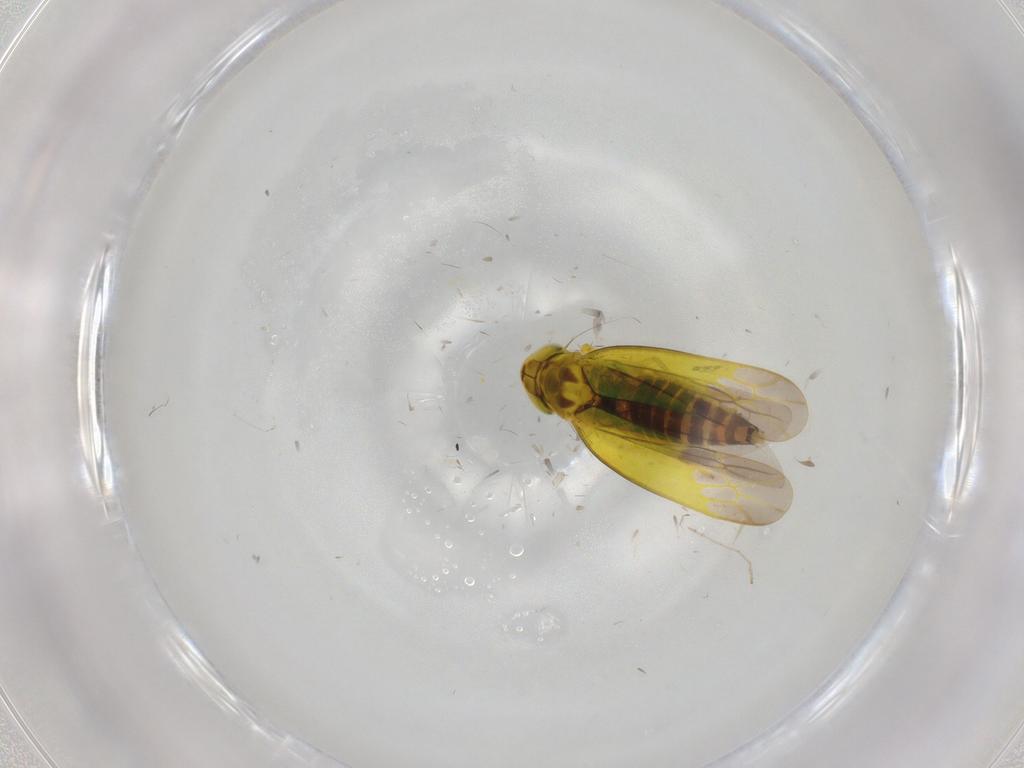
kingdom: Animalia
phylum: Arthropoda
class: Insecta
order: Hemiptera
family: Cicadellidae
